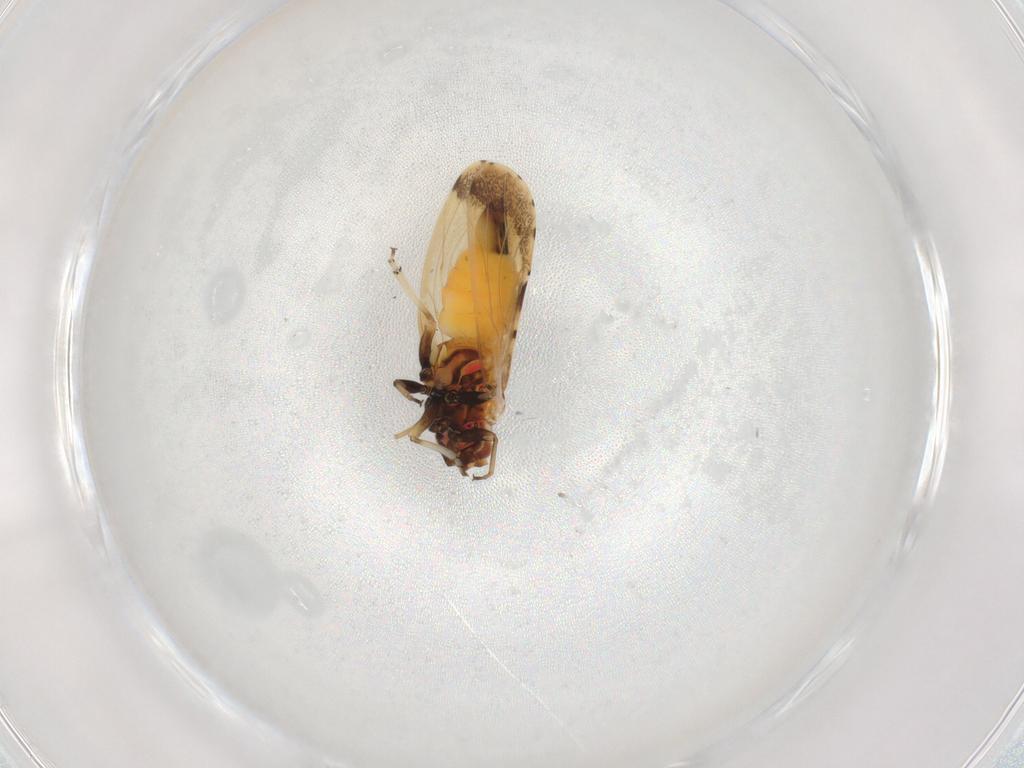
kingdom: Animalia
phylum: Arthropoda
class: Insecta
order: Hemiptera
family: Psyllidae
